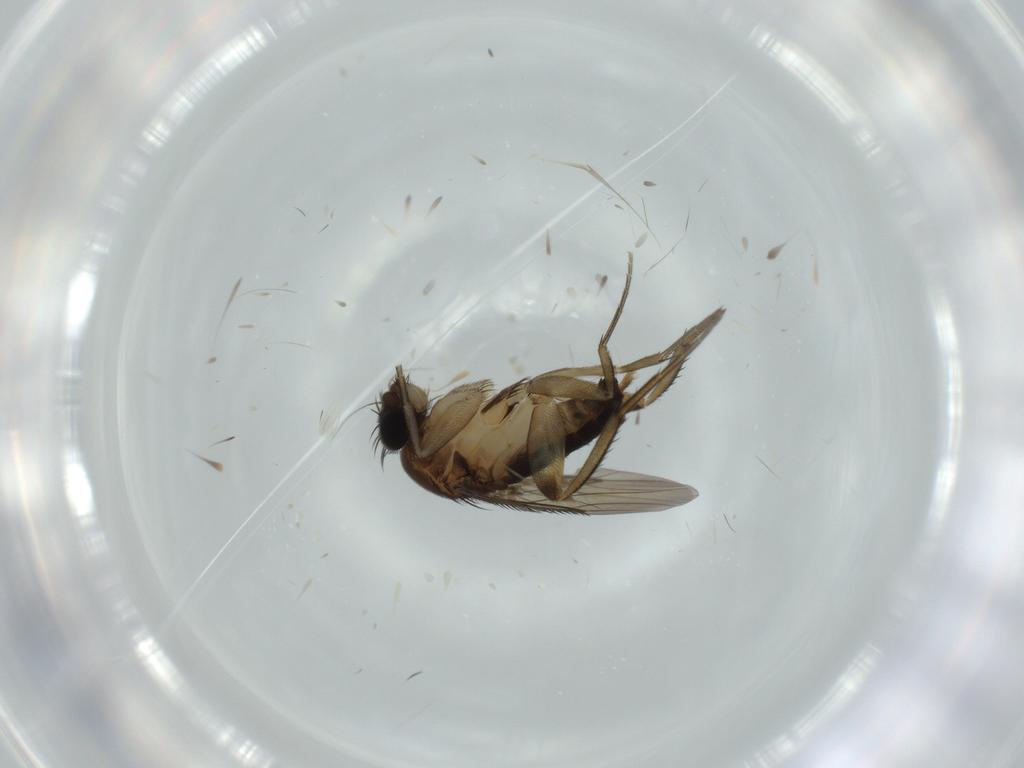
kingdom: Animalia
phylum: Arthropoda
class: Insecta
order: Diptera
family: Phoridae
